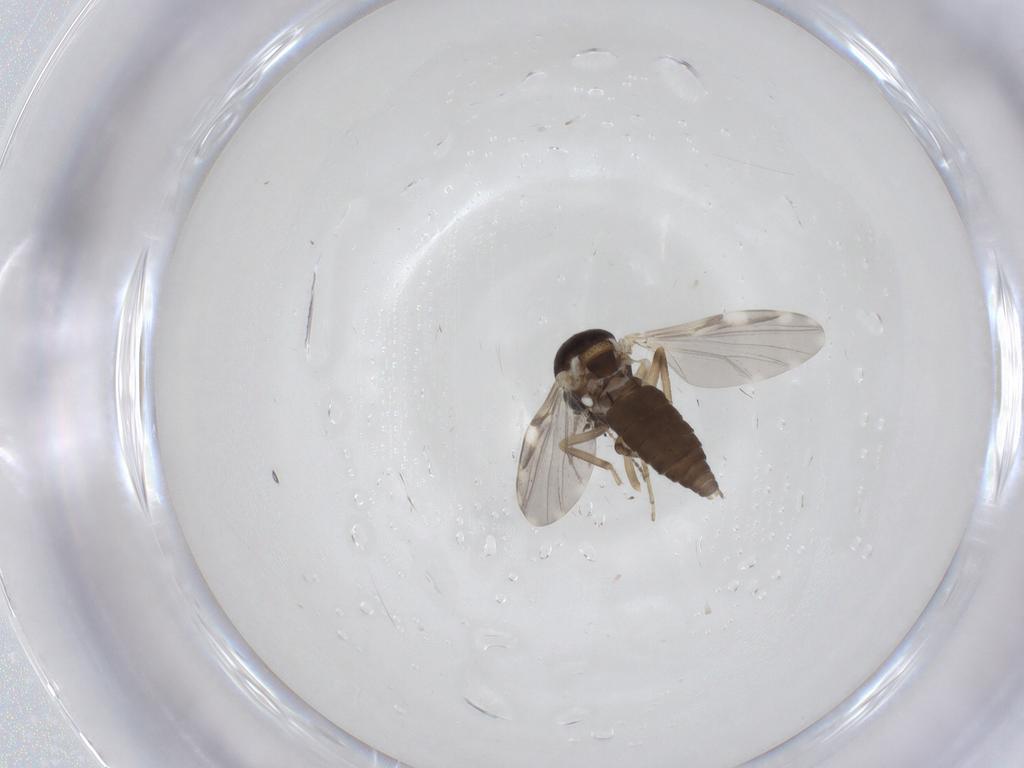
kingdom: Animalia
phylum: Arthropoda
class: Insecta
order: Diptera
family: Ceratopogonidae
